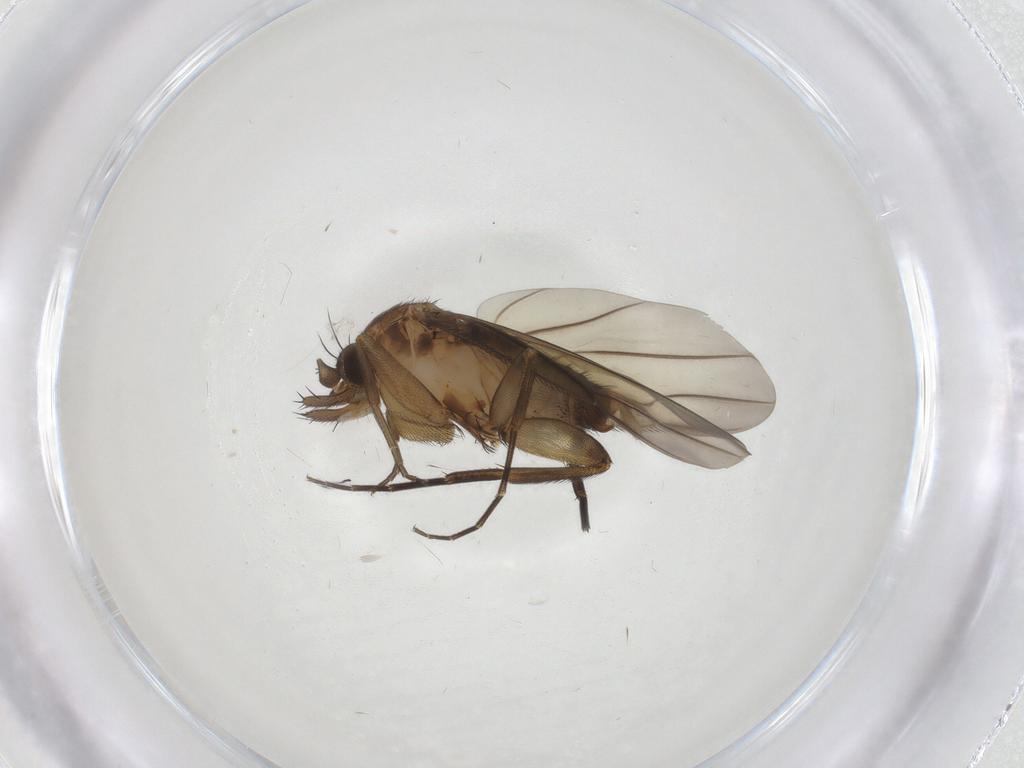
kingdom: Animalia
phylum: Arthropoda
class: Insecta
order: Diptera
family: Phoridae
